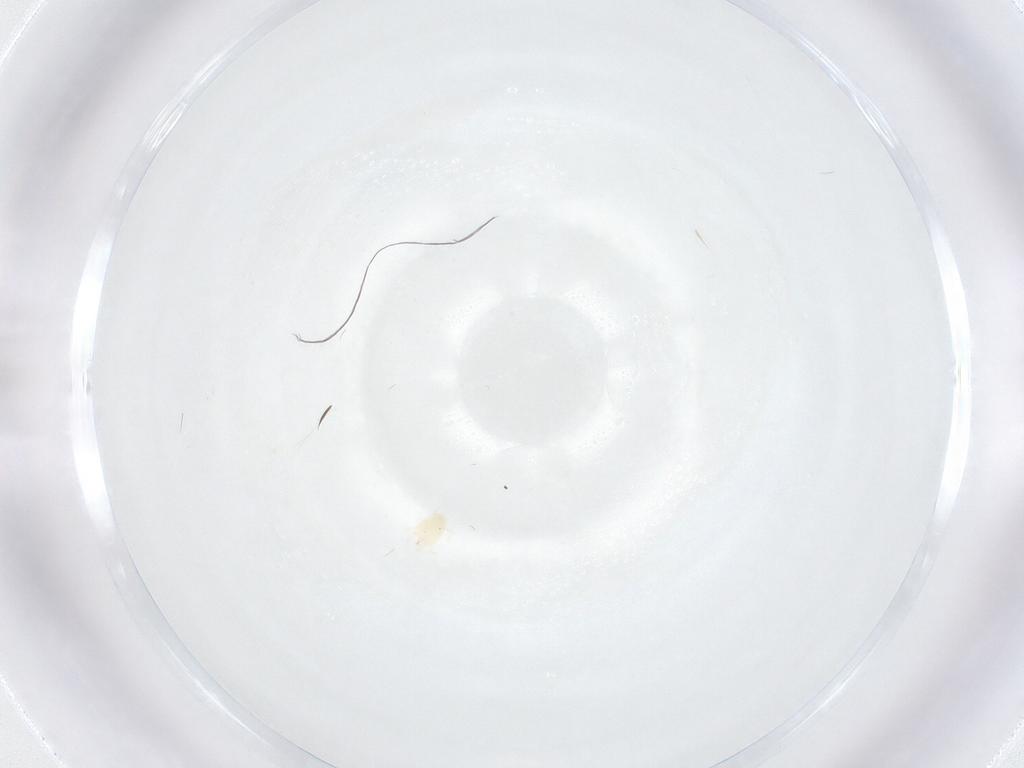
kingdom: Animalia
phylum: Arthropoda
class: Arachnida
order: Trombidiformes
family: Tetranychidae
